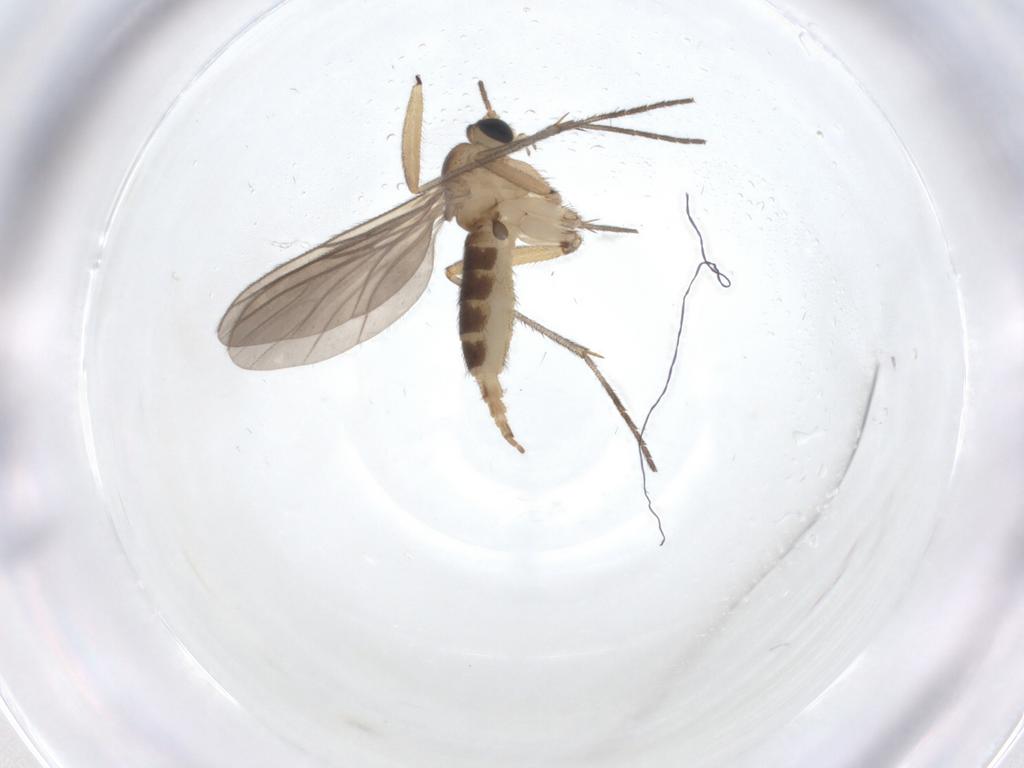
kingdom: Animalia
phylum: Arthropoda
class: Insecta
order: Diptera
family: Sciaridae
